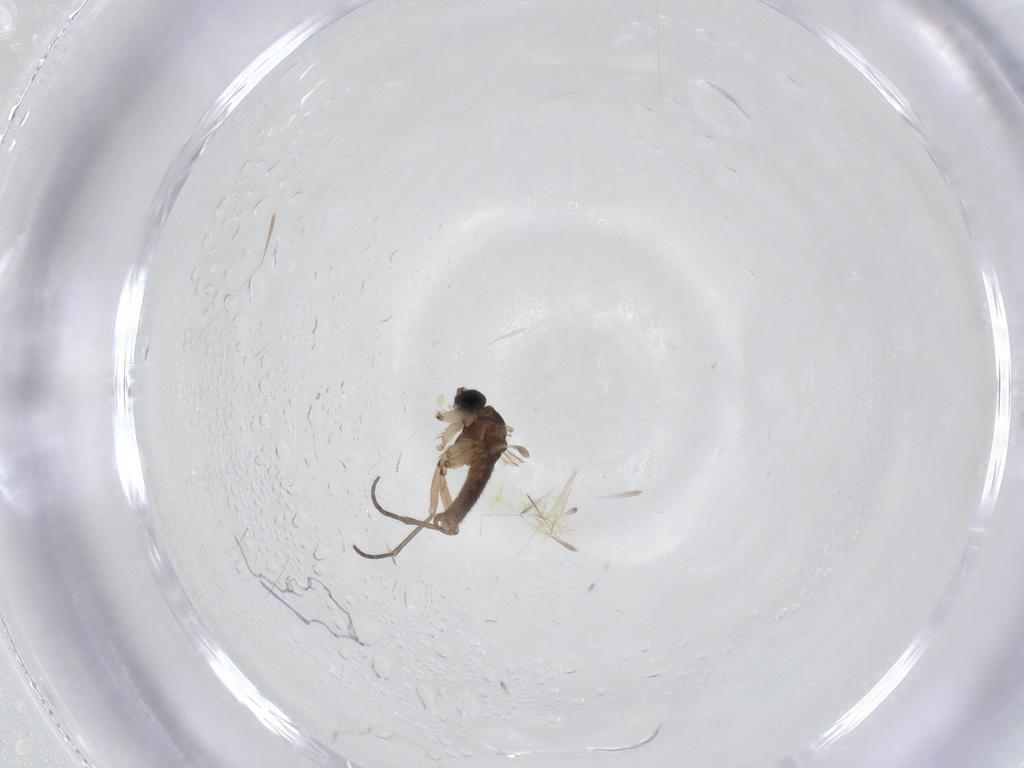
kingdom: Animalia
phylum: Arthropoda
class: Insecta
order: Diptera
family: Sciaridae
